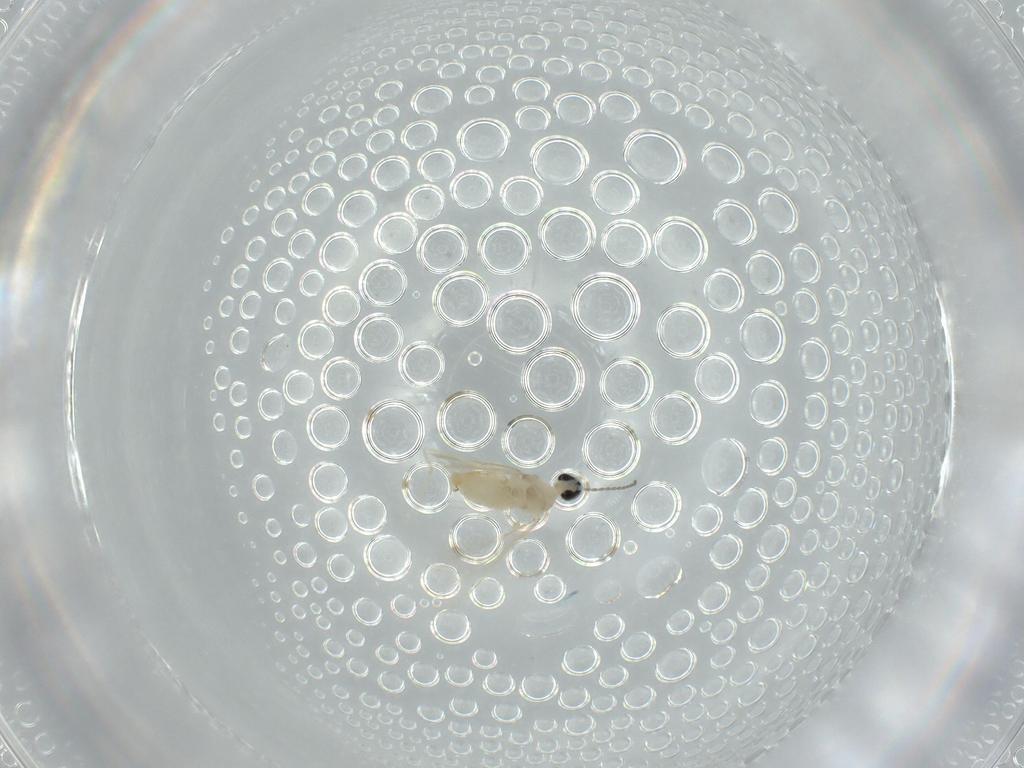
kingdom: Animalia
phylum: Arthropoda
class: Insecta
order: Diptera
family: Cecidomyiidae
